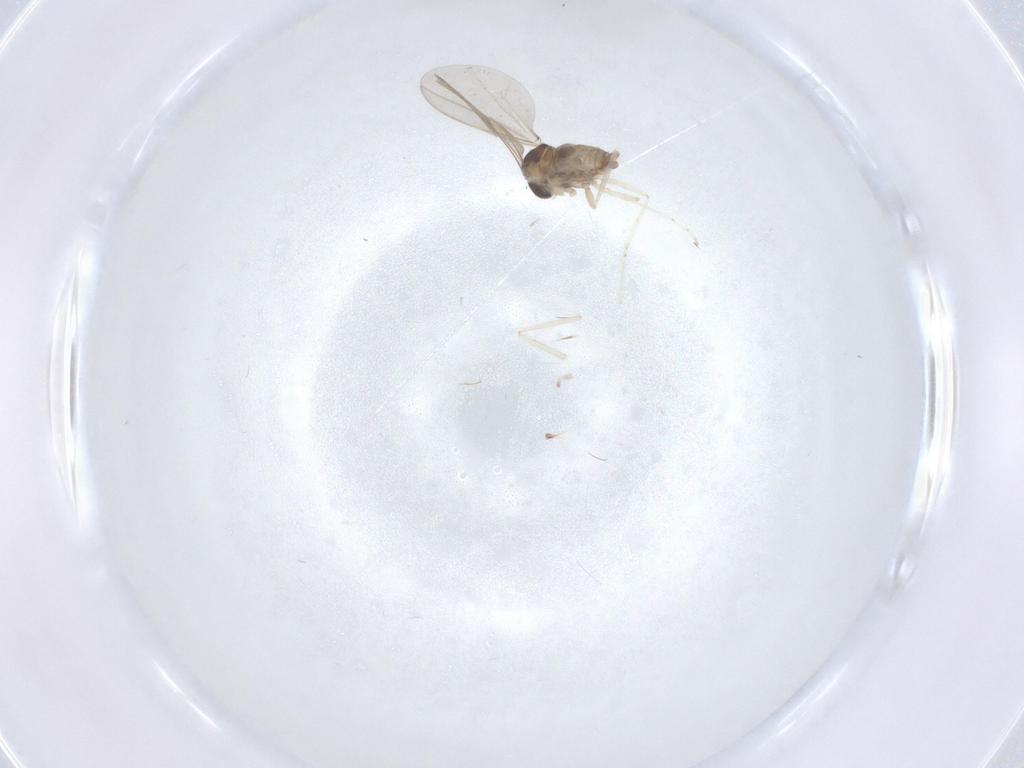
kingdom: Animalia
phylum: Arthropoda
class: Insecta
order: Diptera
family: Cecidomyiidae
